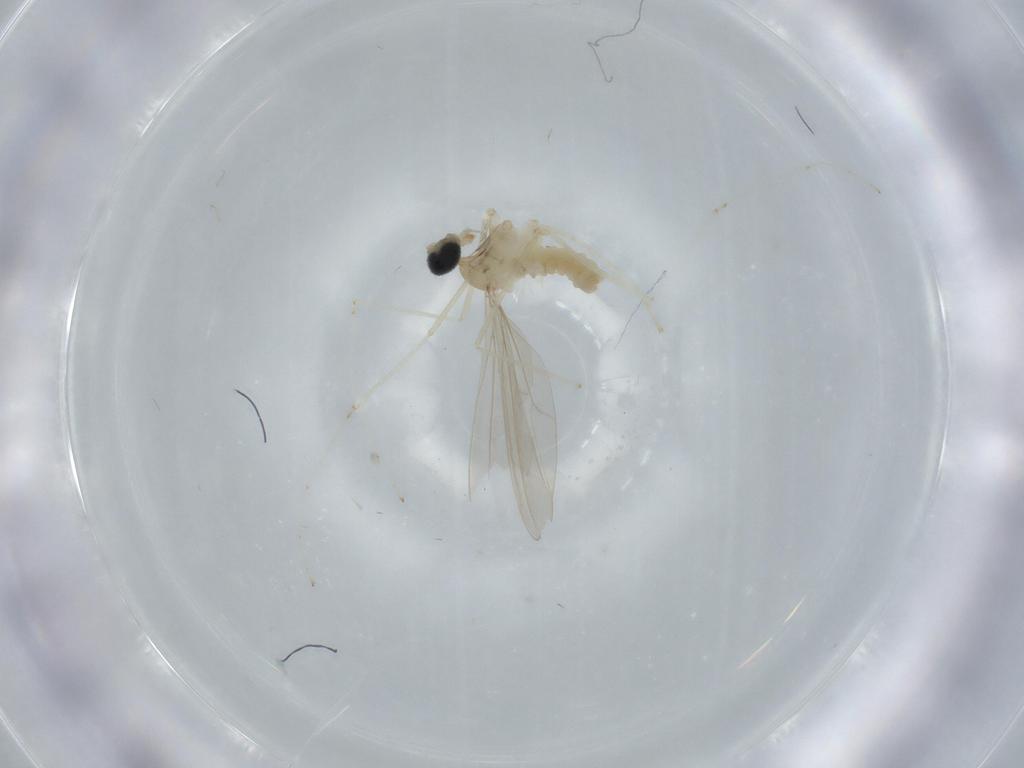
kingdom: Animalia
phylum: Arthropoda
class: Insecta
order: Diptera
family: Cecidomyiidae
